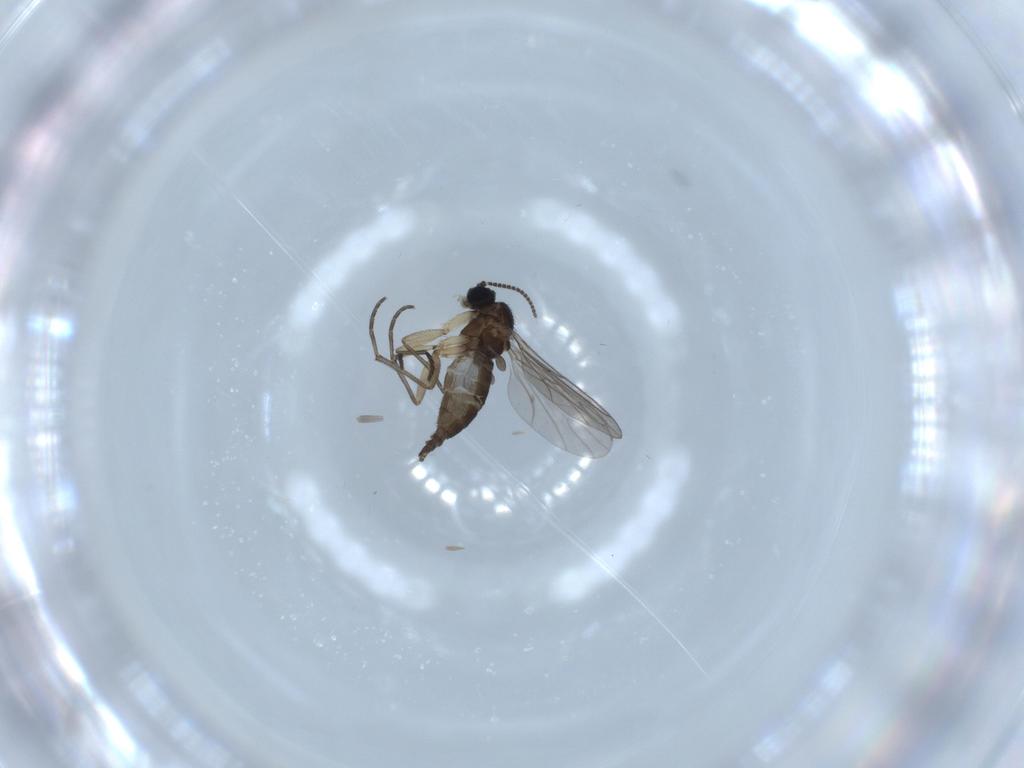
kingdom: Animalia
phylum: Arthropoda
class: Insecta
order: Diptera
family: Sciaridae
